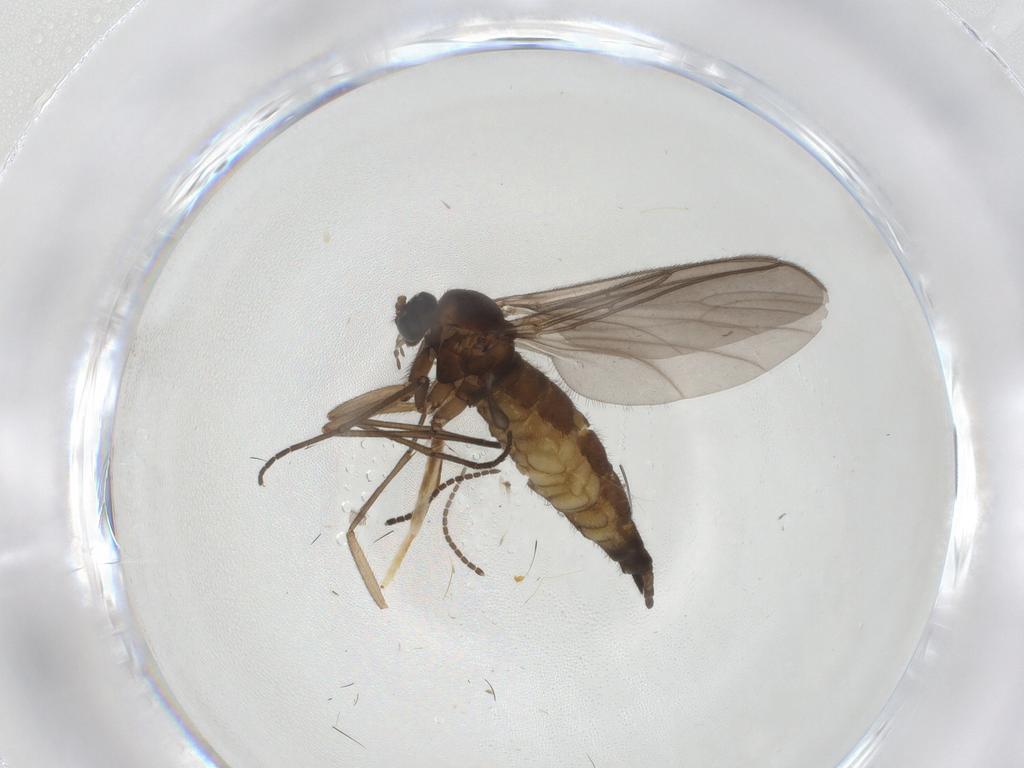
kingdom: Animalia
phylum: Arthropoda
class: Insecta
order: Diptera
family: Sciaridae
